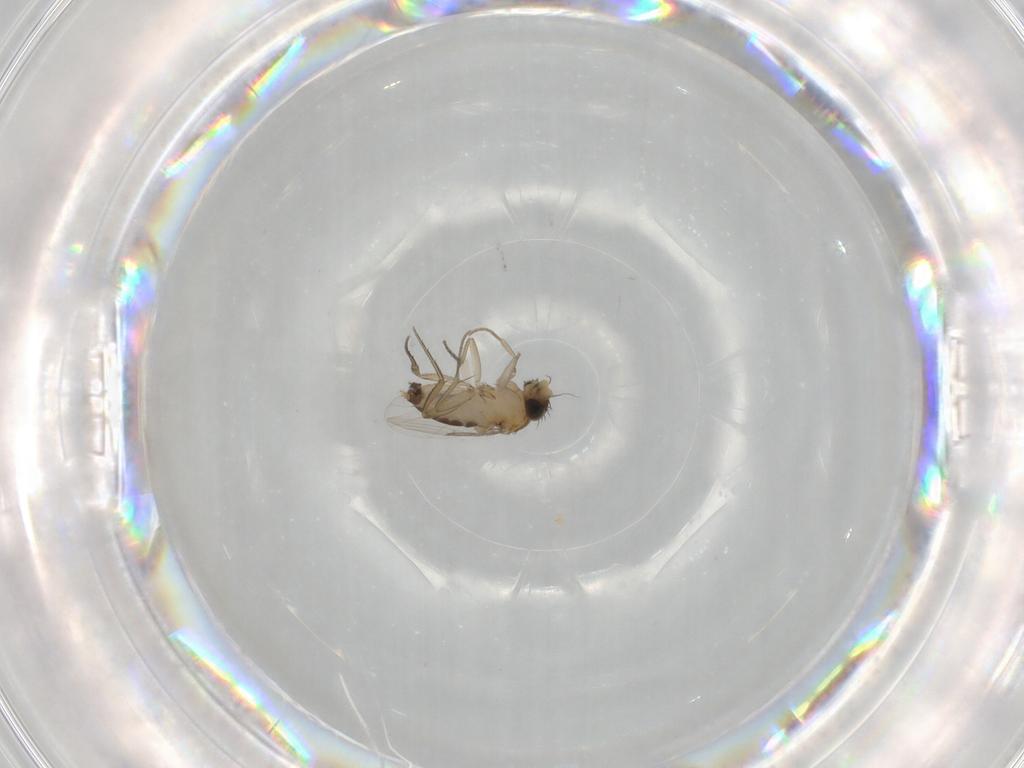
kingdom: Animalia
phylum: Arthropoda
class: Insecta
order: Diptera
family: Phoridae
